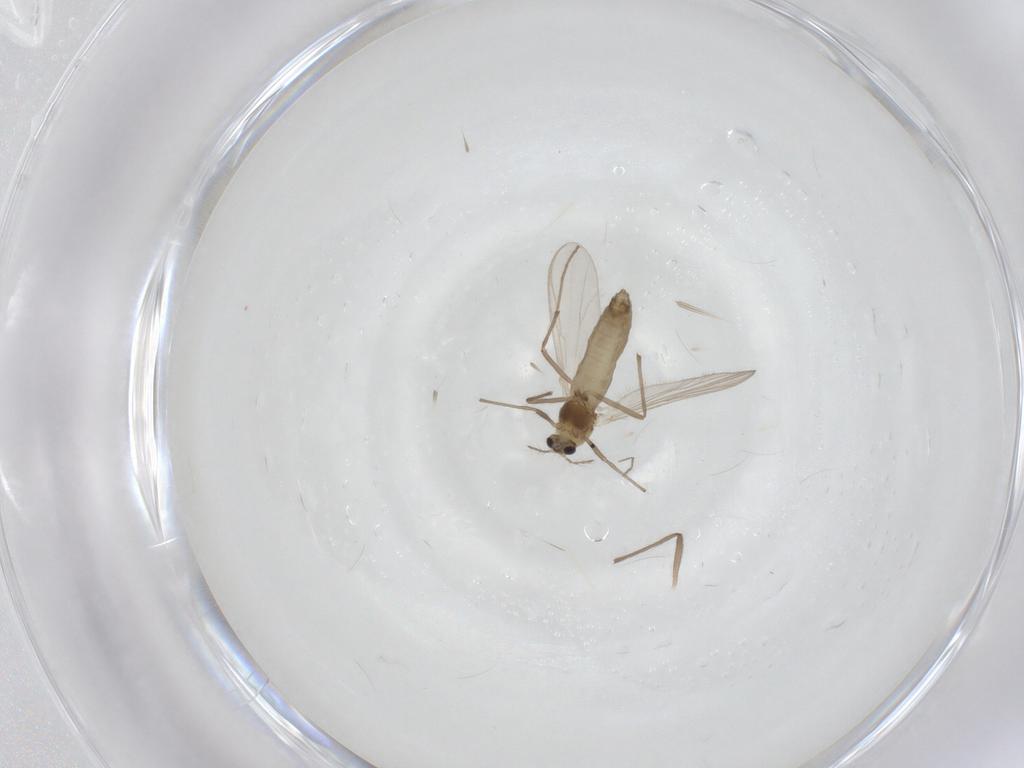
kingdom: Animalia
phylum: Arthropoda
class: Insecta
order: Diptera
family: Chironomidae
